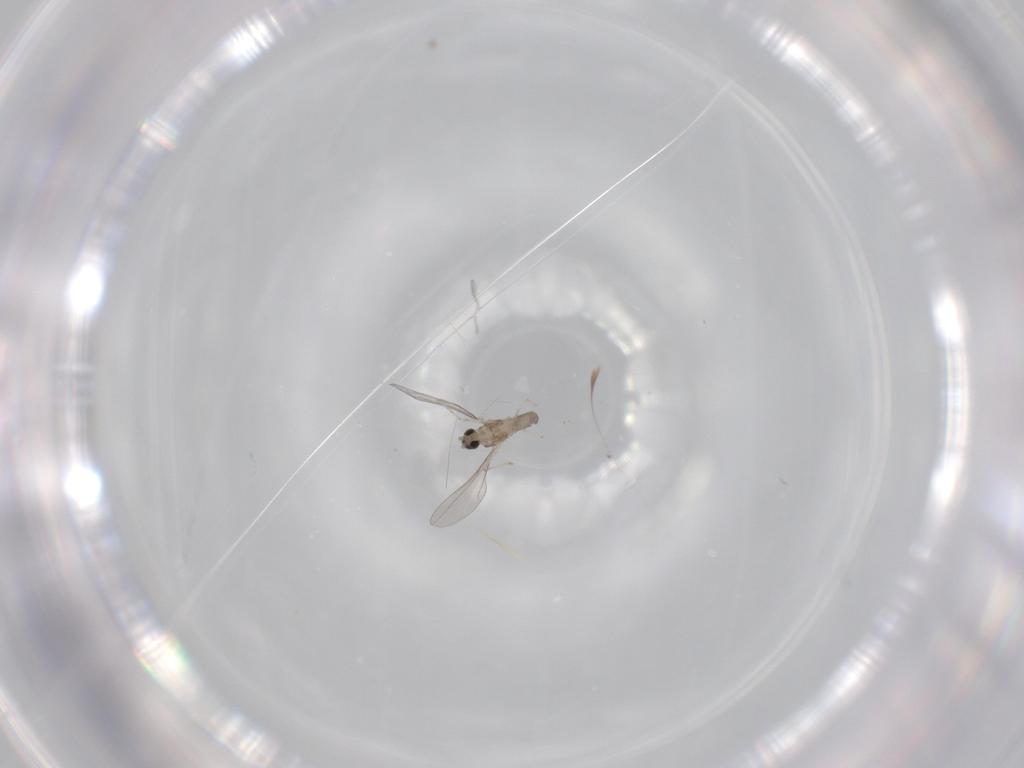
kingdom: Animalia
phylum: Arthropoda
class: Insecta
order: Diptera
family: Cecidomyiidae
